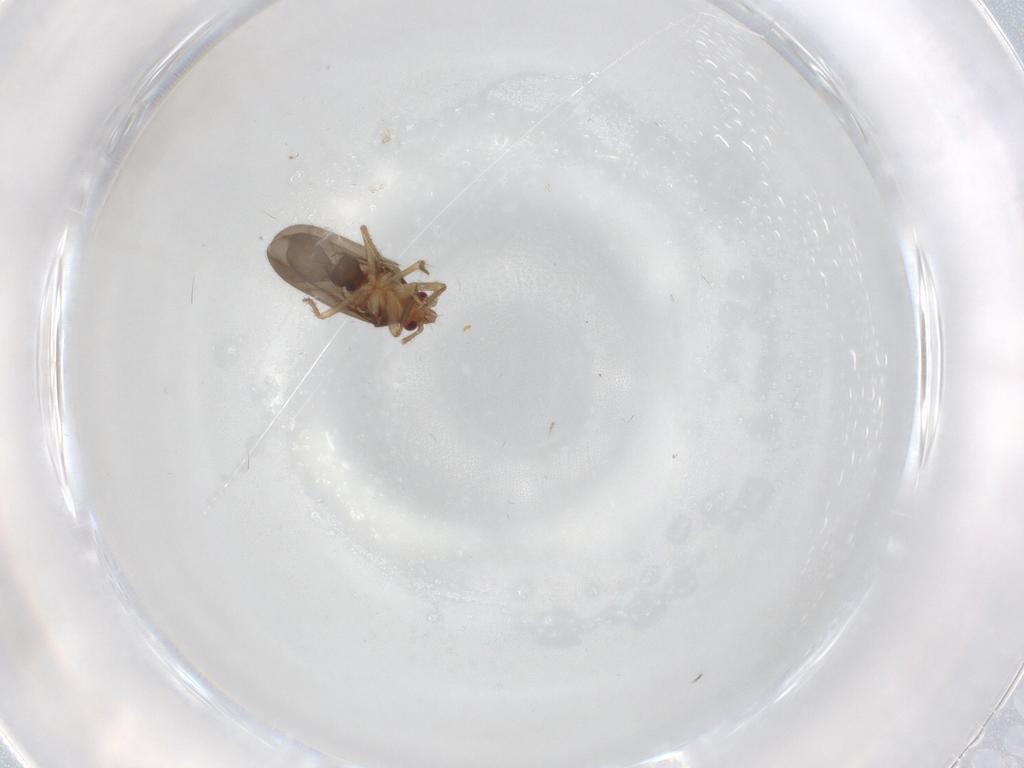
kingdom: Animalia
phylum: Arthropoda
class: Insecta
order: Hemiptera
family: Ceratocombidae
